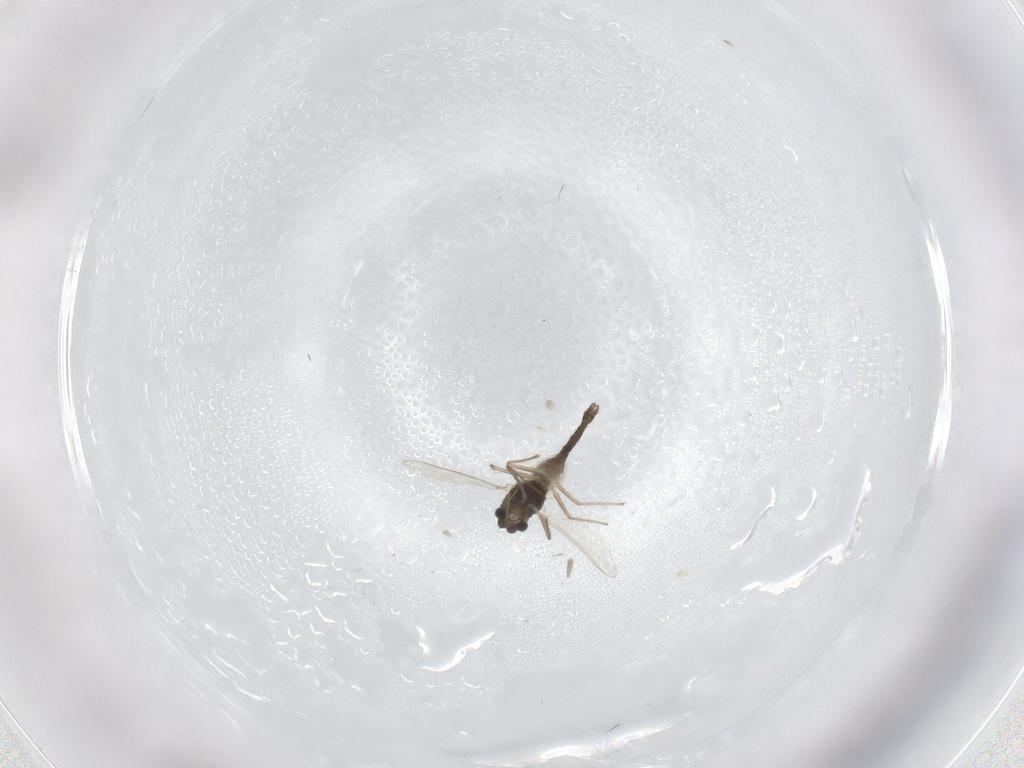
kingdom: Animalia
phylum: Arthropoda
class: Insecta
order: Diptera
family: Chironomidae
